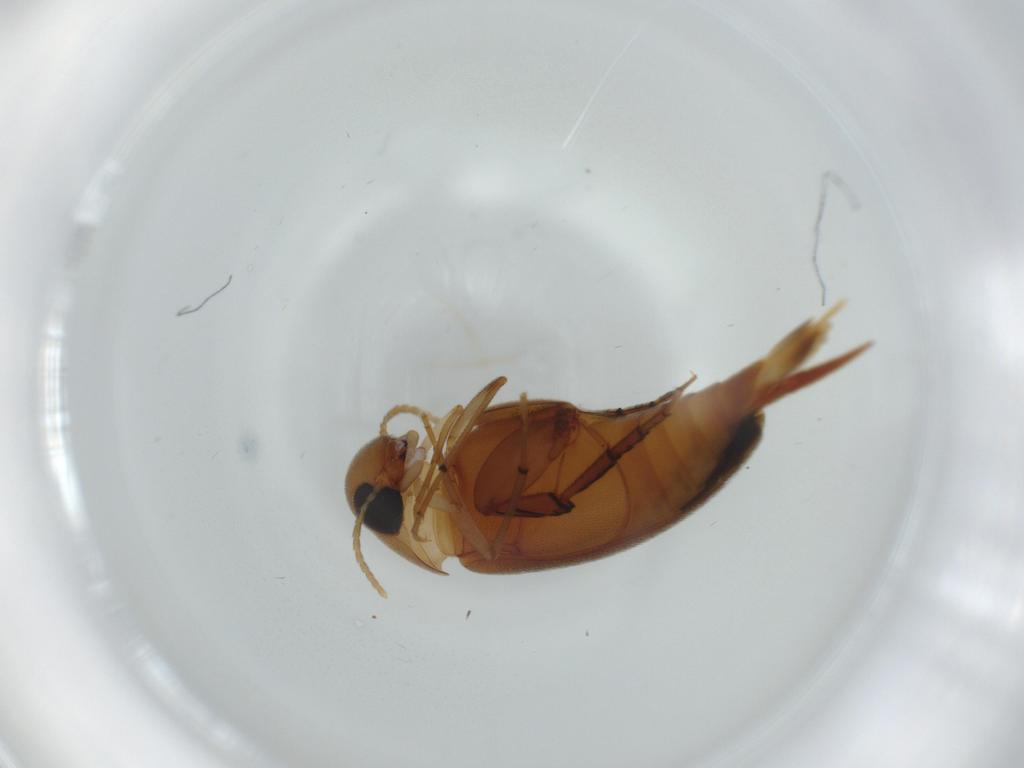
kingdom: Animalia
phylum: Arthropoda
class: Insecta
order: Coleoptera
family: Mordellidae
